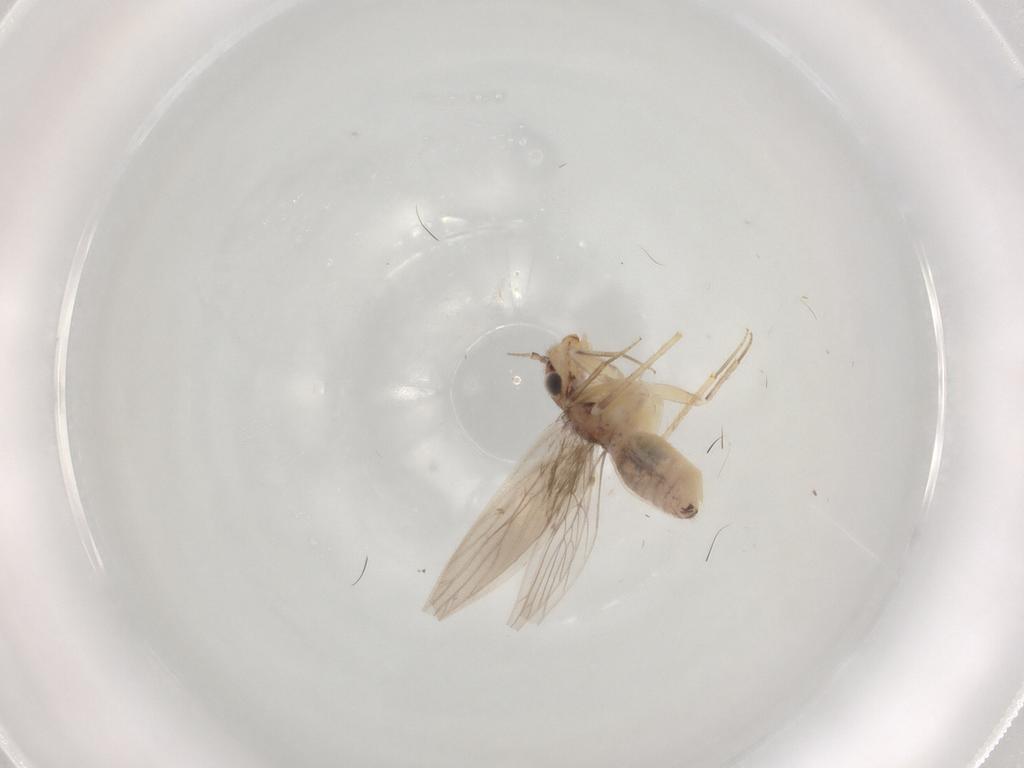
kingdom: Animalia
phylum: Arthropoda
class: Insecta
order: Psocodea
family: Lepidopsocidae
